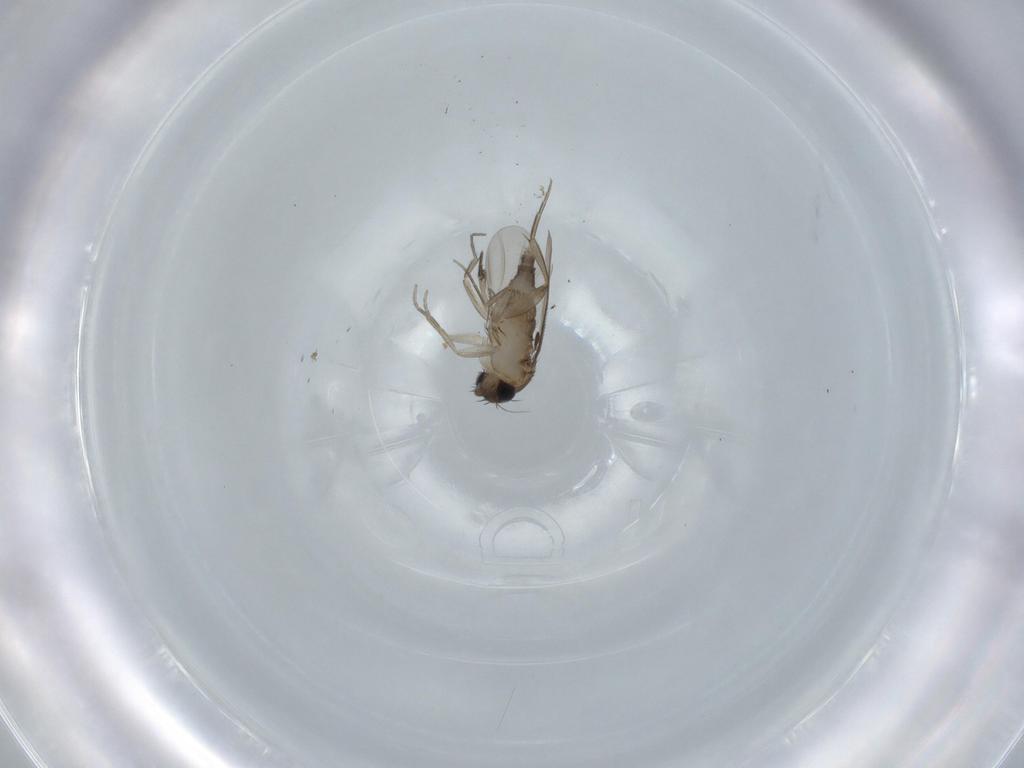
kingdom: Animalia
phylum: Arthropoda
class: Insecta
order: Diptera
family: Phoridae
